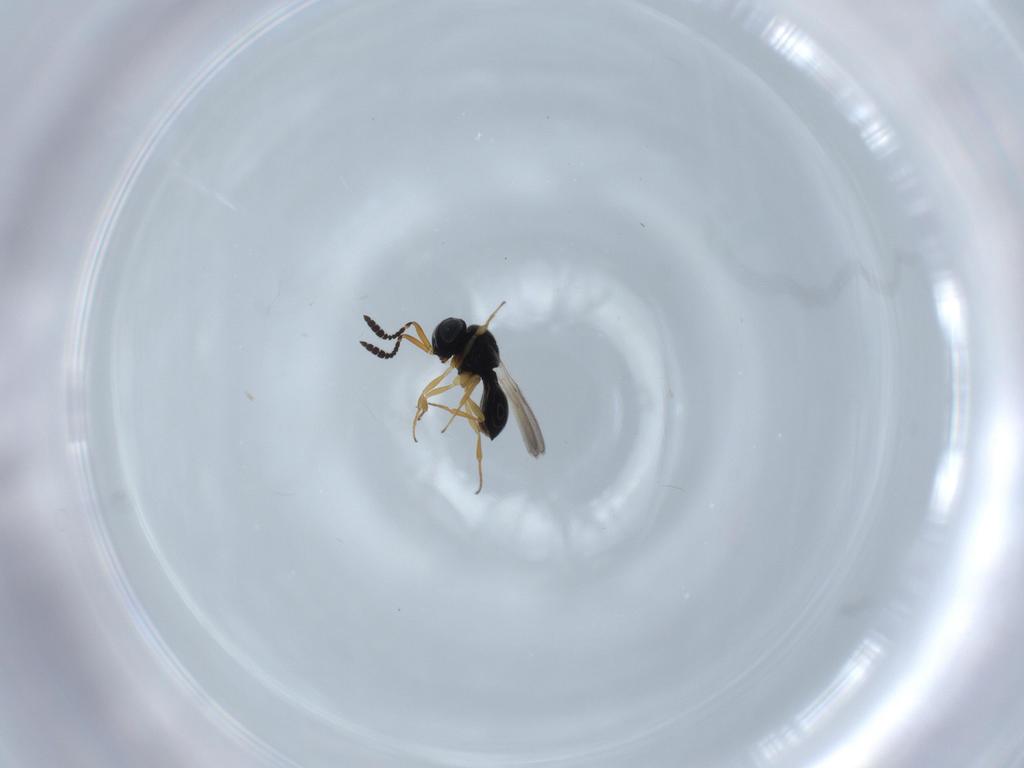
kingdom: Animalia
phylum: Arthropoda
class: Insecta
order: Hymenoptera
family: Scelionidae
